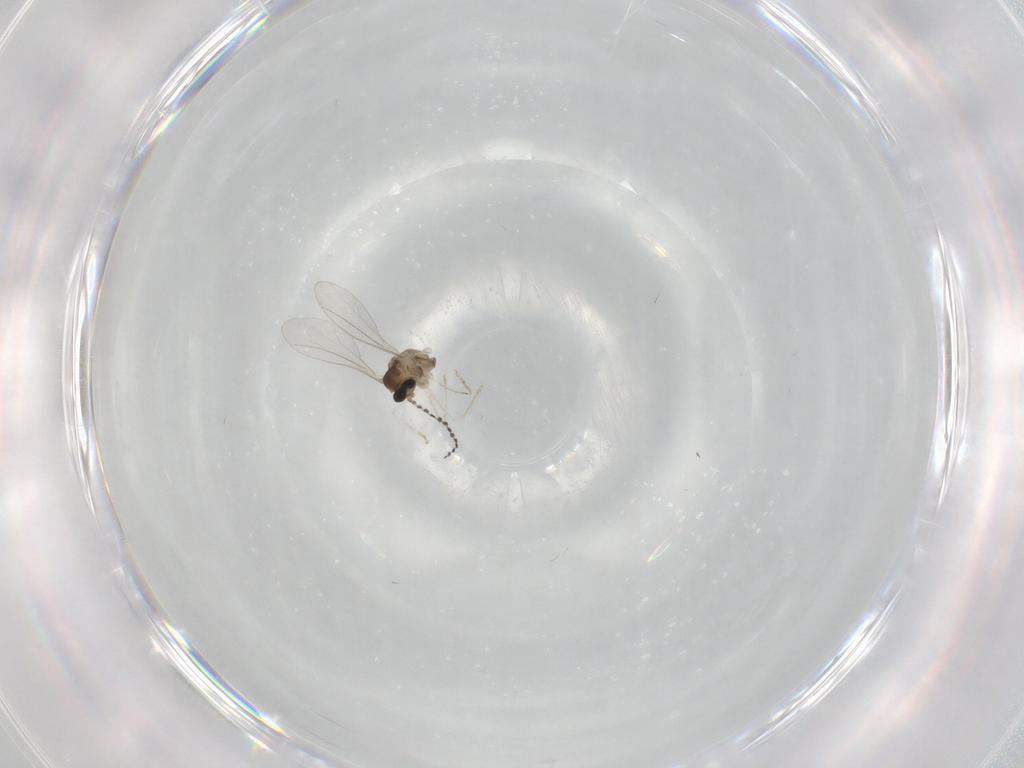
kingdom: Animalia
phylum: Arthropoda
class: Insecta
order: Diptera
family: Cecidomyiidae
